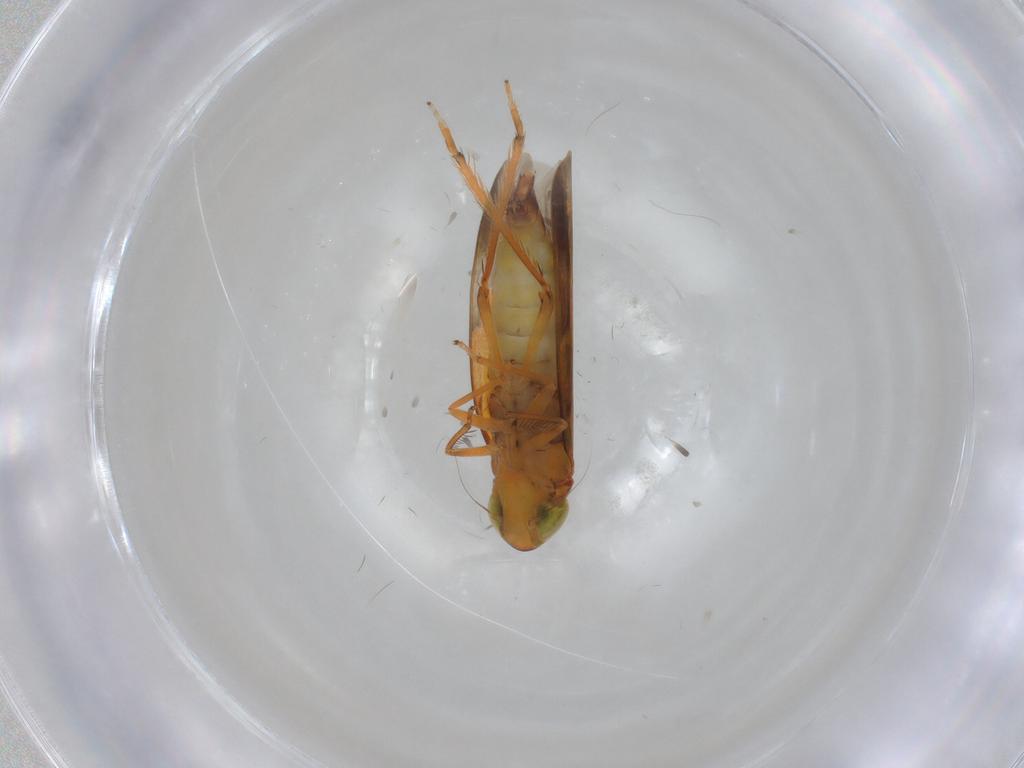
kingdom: Animalia
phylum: Arthropoda
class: Insecta
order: Hemiptera
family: Cicadellidae
